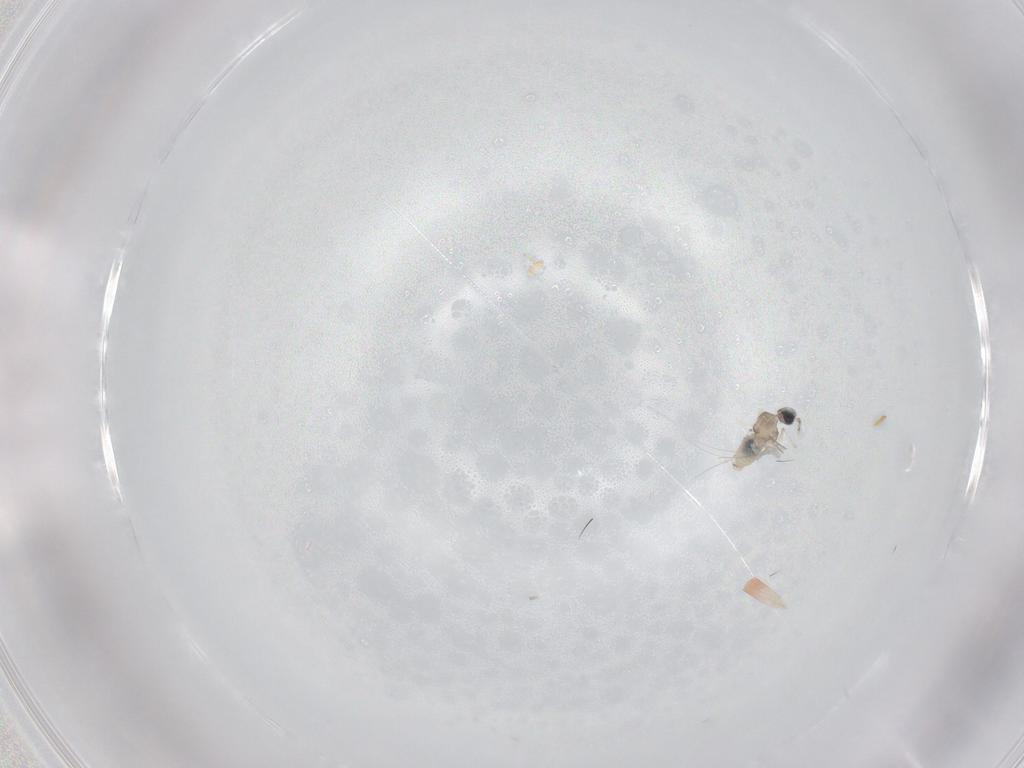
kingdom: Animalia
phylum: Arthropoda
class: Insecta
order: Diptera
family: Cecidomyiidae
